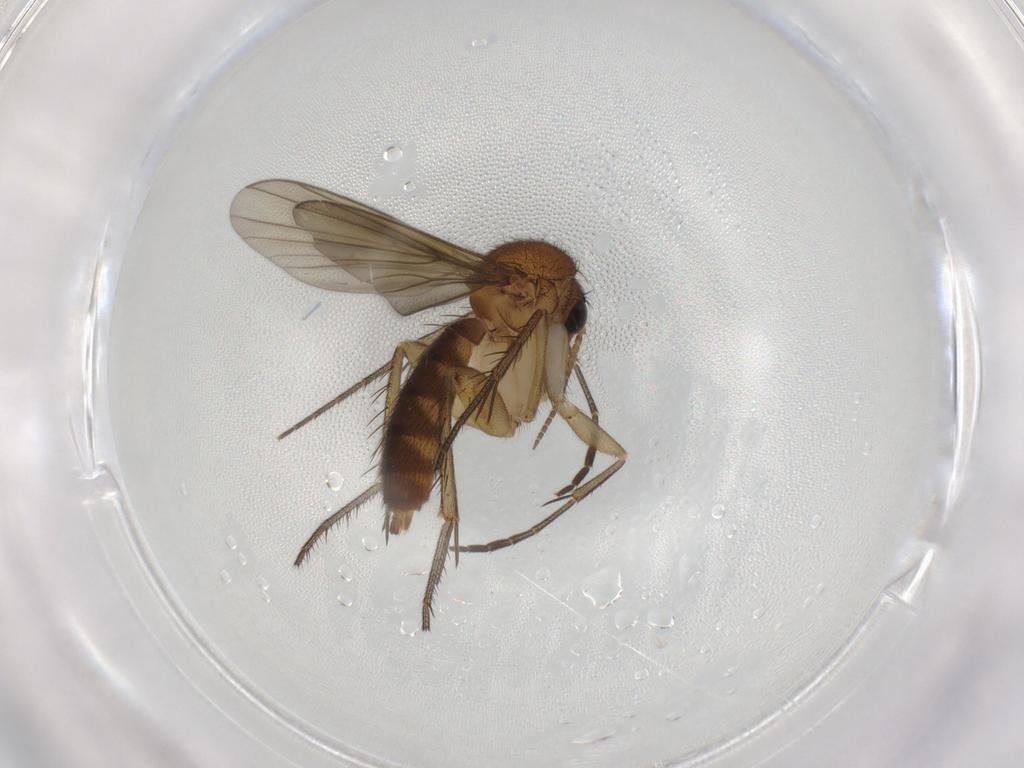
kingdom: Animalia
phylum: Arthropoda
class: Insecta
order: Diptera
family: Mycetophilidae
